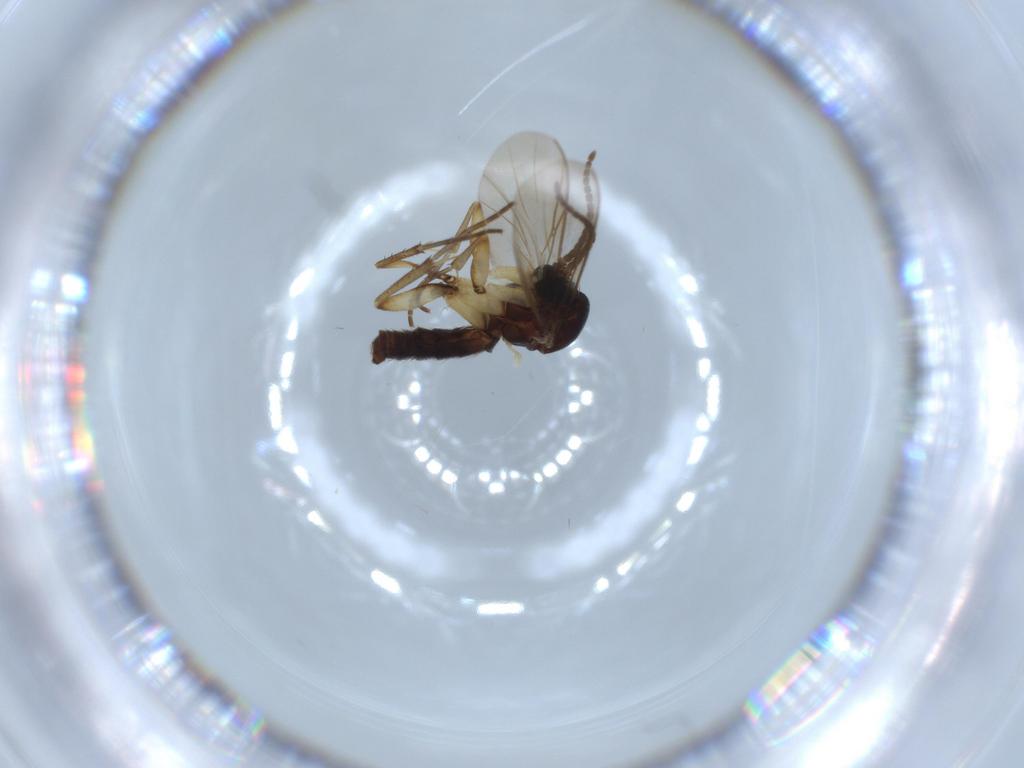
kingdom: Animalia
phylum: Arthropoda
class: Insecta
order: Diptera
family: Mycetophilidae
